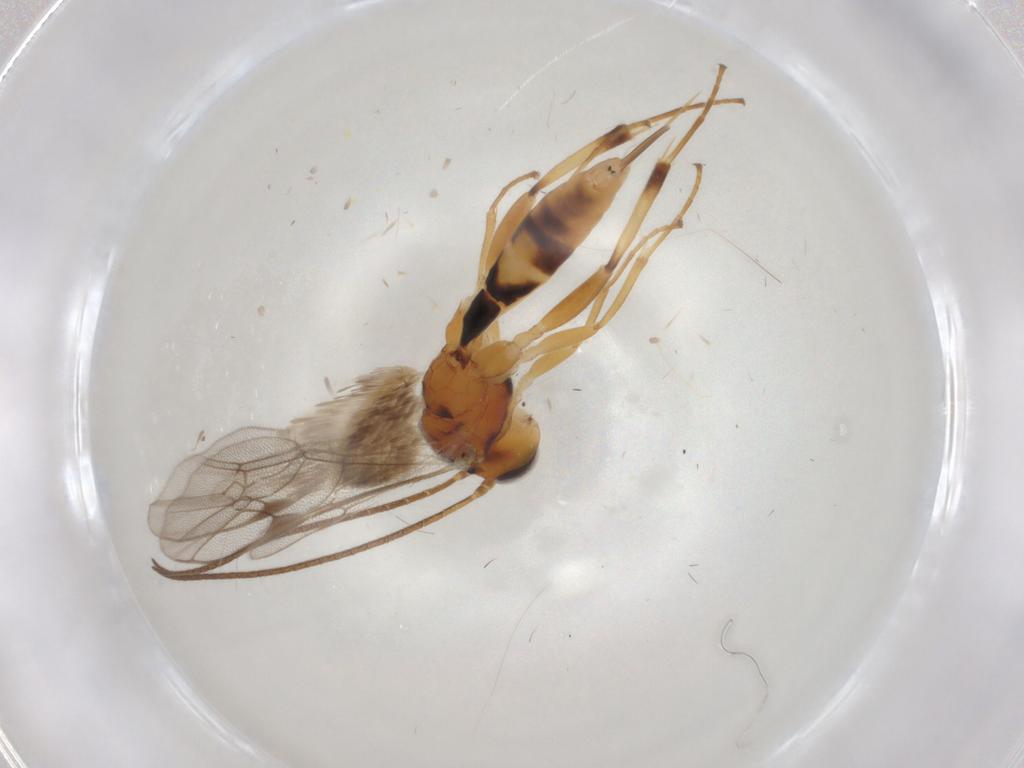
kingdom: Animalia
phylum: Arthropoda
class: Insecta
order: Hymenoptera
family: Ichneumonidae
